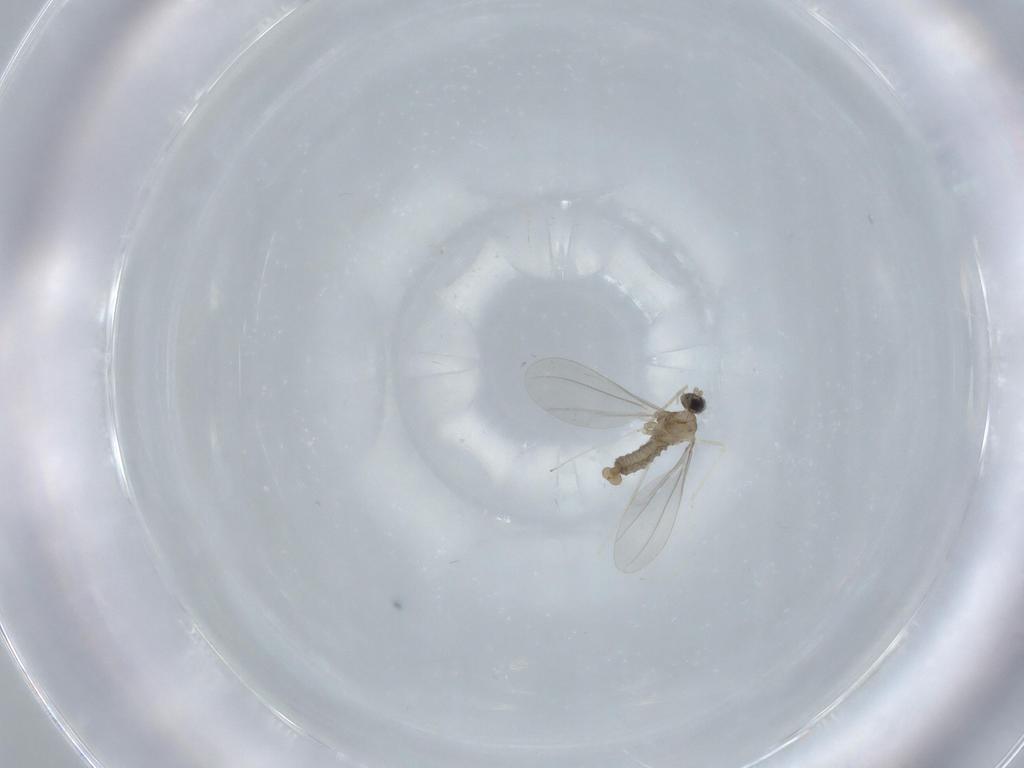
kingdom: Animalia
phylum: Arthropoda
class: Insecta
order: Diptera
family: Cecidomyiidae
